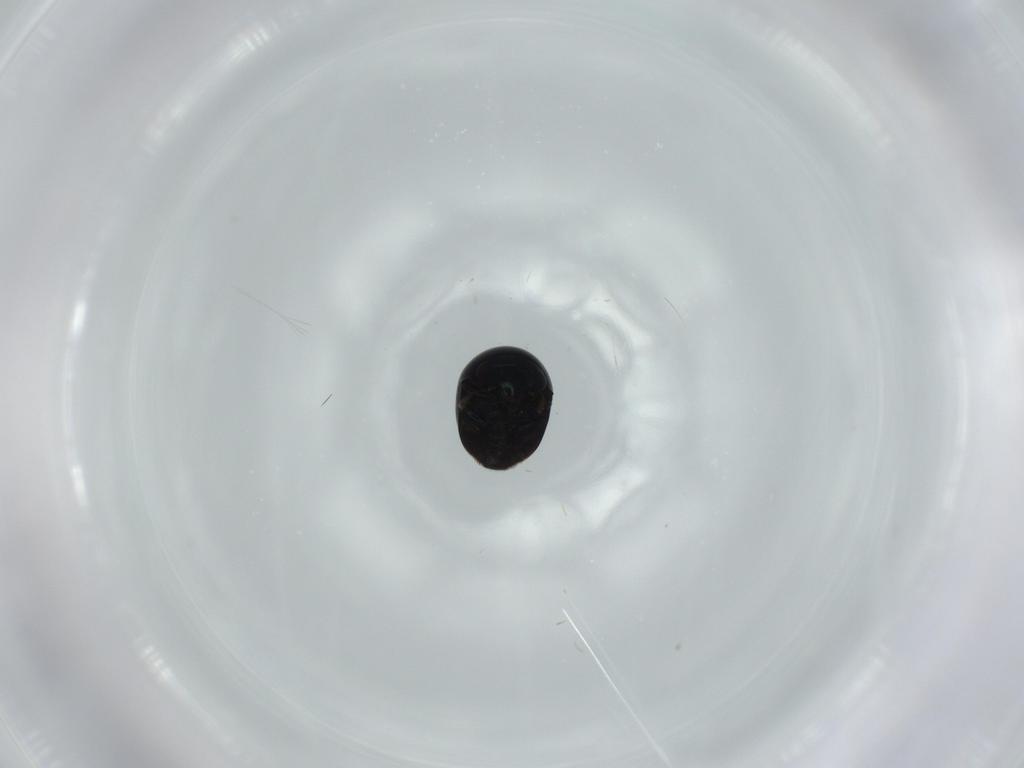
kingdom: Animalia
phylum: Arthropoda
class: Insecta
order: Coleoptera
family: Cybocephalidae
